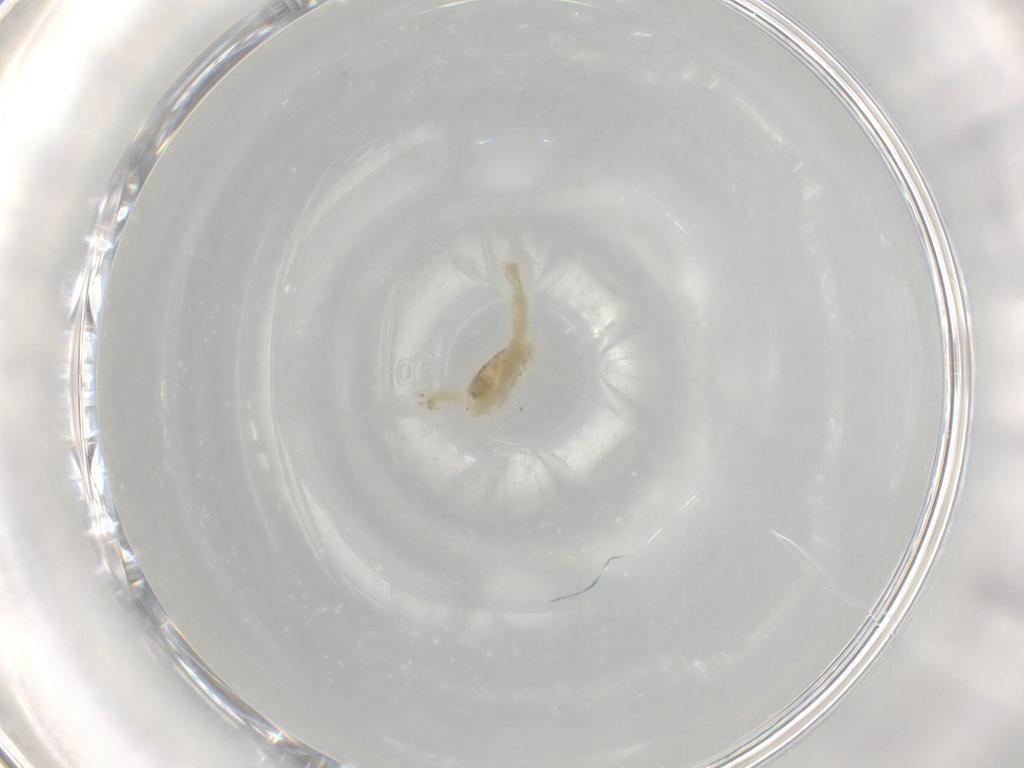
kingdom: Animalia
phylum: Arthropoda
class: Insecta
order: Diptera
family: Chironomidae
